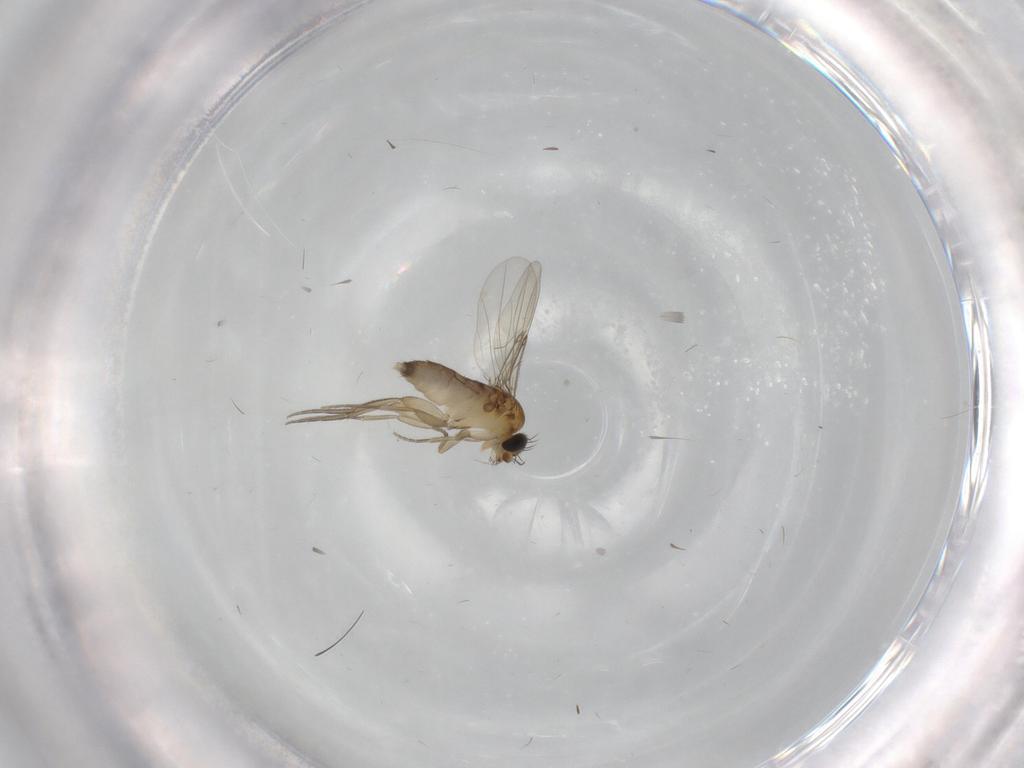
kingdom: Animalia
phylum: Arthropoda
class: Insecta
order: Diptera
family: Phoridae
